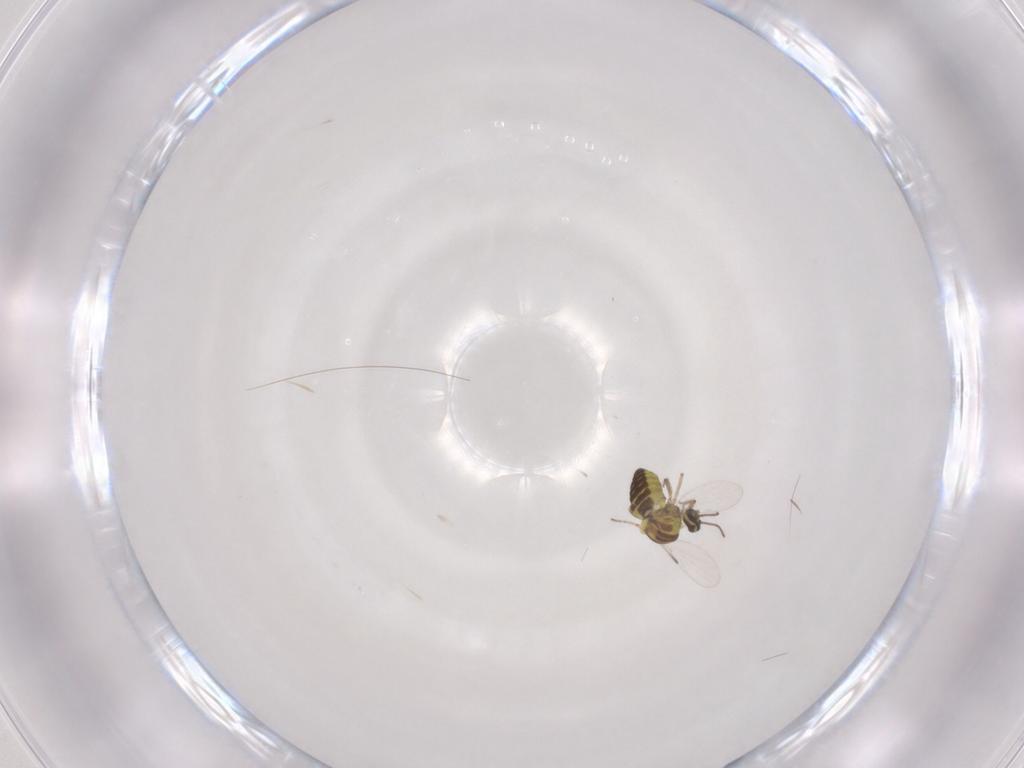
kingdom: Animalia
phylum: Arthropoda
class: Insecta
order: Diptera
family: Ceratopogonidae
